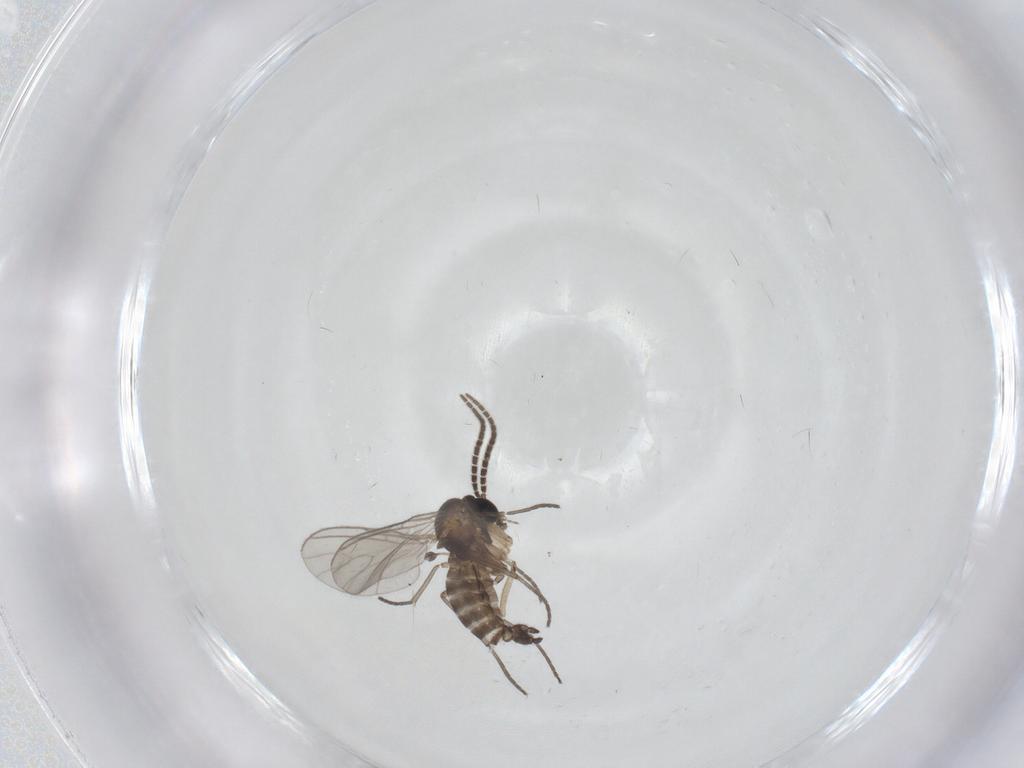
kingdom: Animalia
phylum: Arthropoda
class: Insecta
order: Diptera
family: Sciaridae
